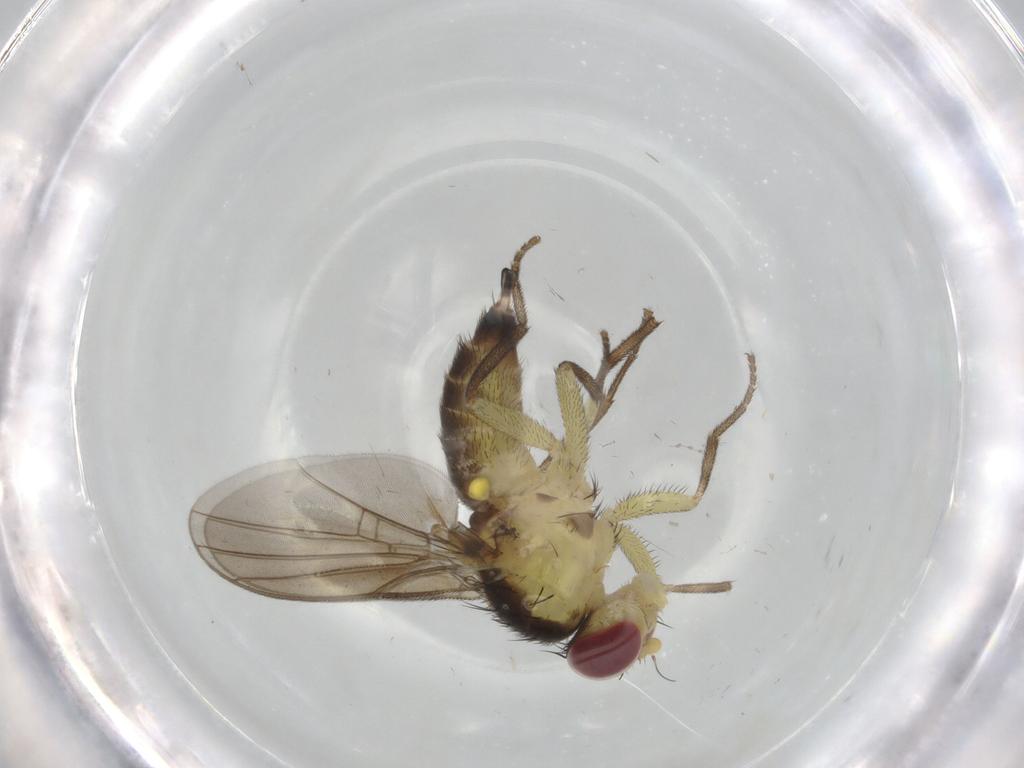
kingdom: Animalia
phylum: Arthropoda
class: Insecta
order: Diptera
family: Agromyzidae
